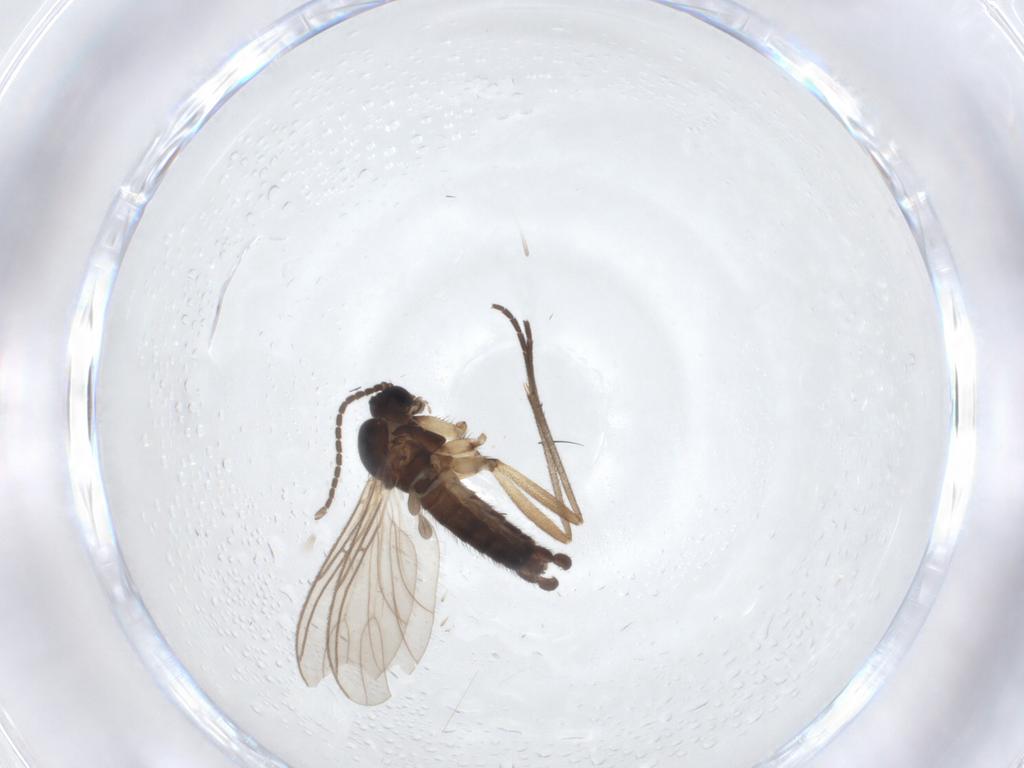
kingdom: Animalia
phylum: Arthropoda
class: Insecta
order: Diptera
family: Sciaridae
